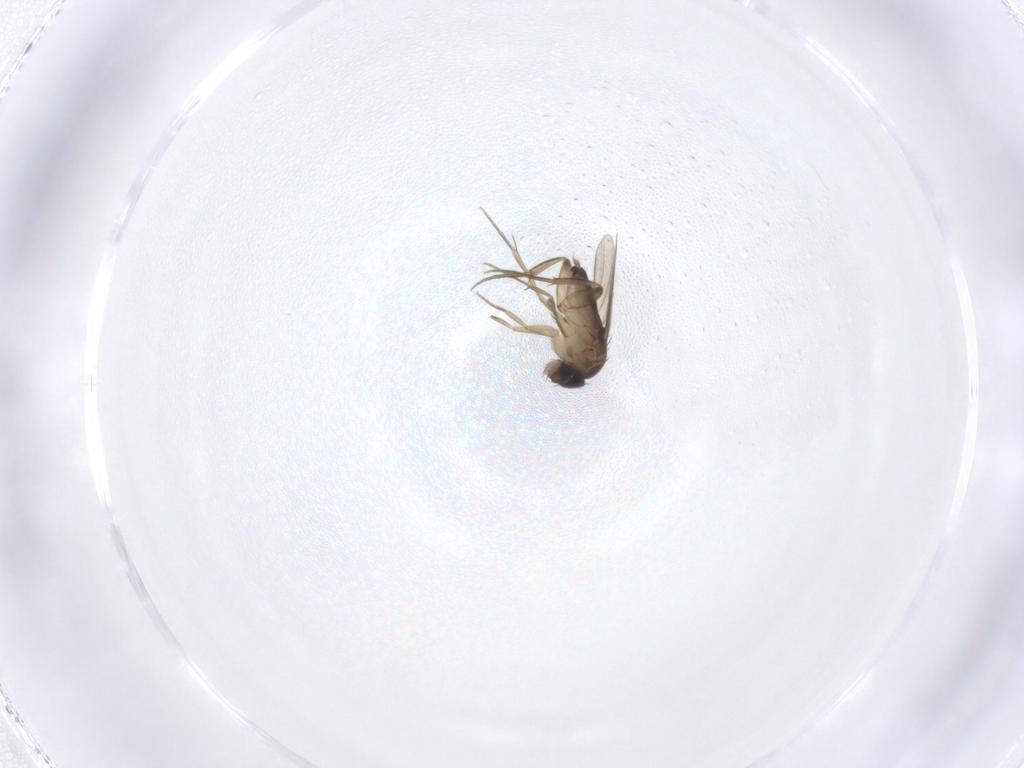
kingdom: Animalia
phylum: Arthropoda
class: Insecta
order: Diptera
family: Phoridae
